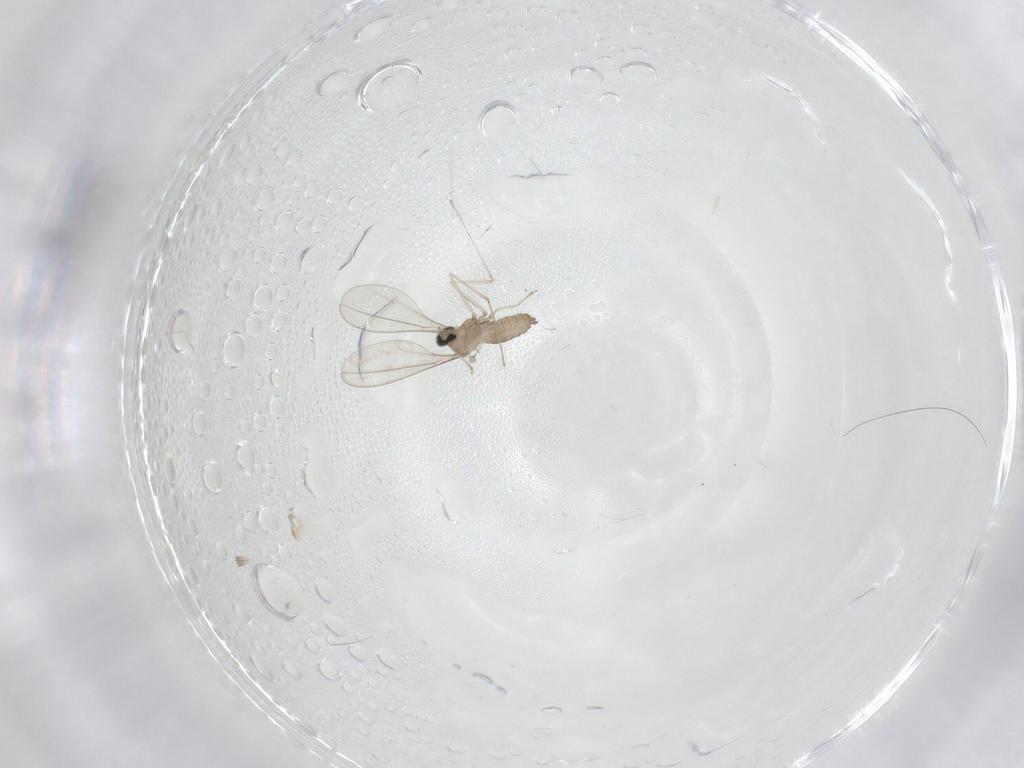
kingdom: Animalia
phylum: Arthropoda
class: Insecta
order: Diptera
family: Cecidomyiidae
